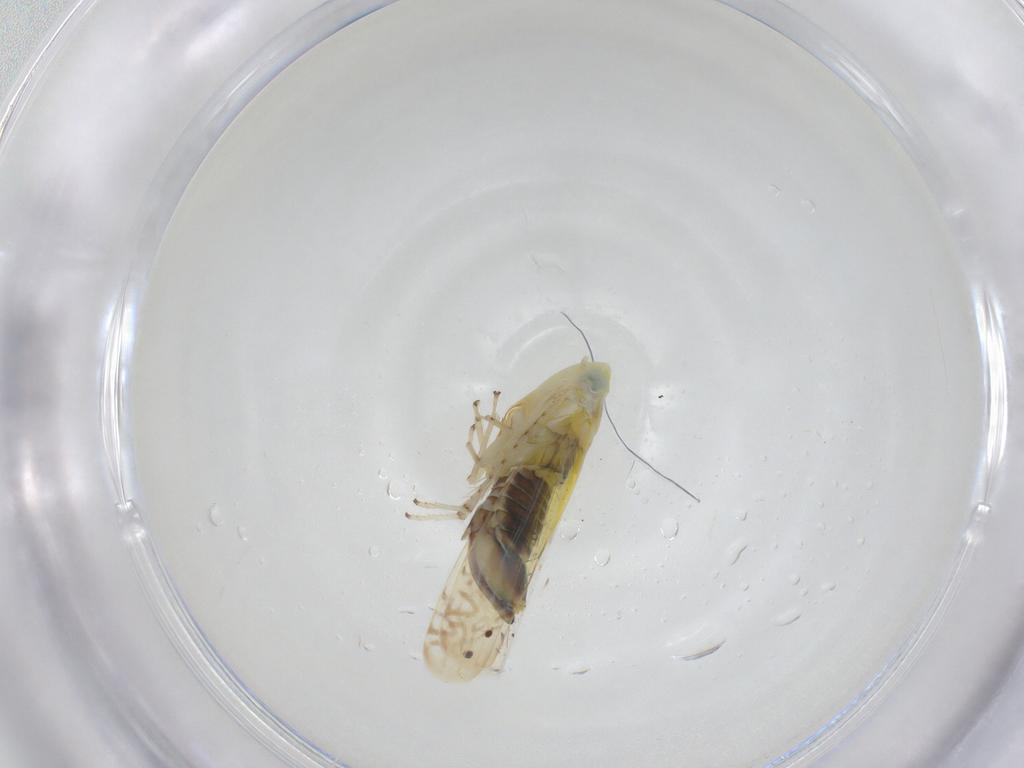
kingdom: Animalia
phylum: Arthropoda
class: Insecta
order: Hemiptera
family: Cicadellidae
